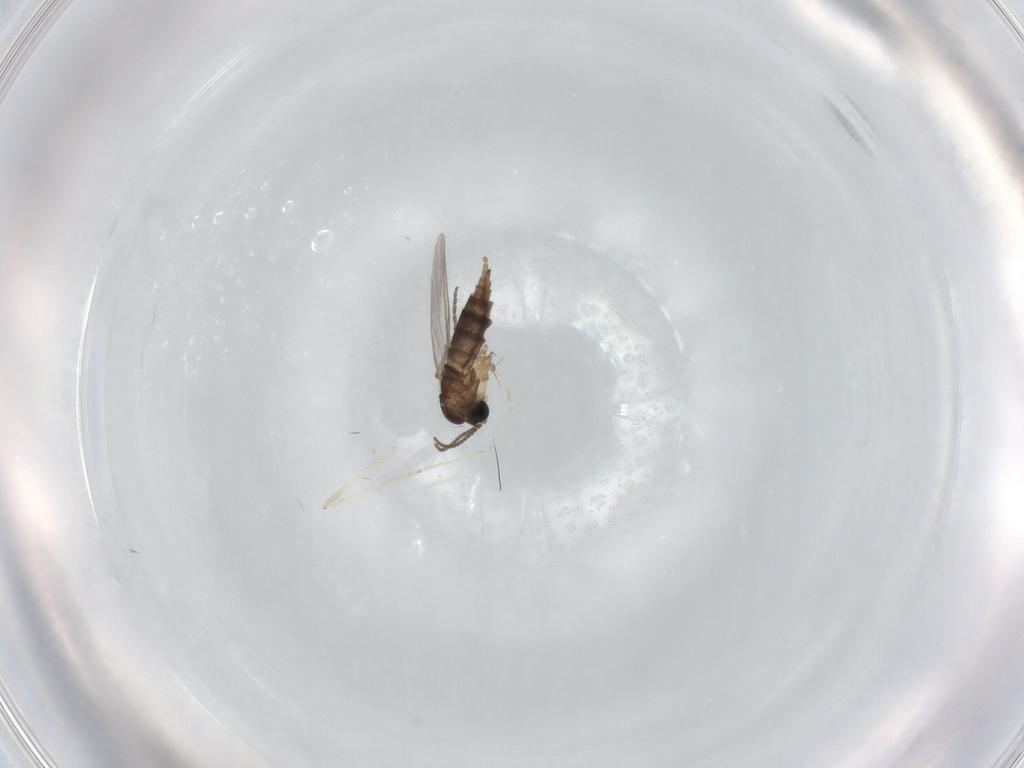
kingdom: Animalia
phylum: Arthropoda
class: Insecta
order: Diptera
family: Sciaridae
